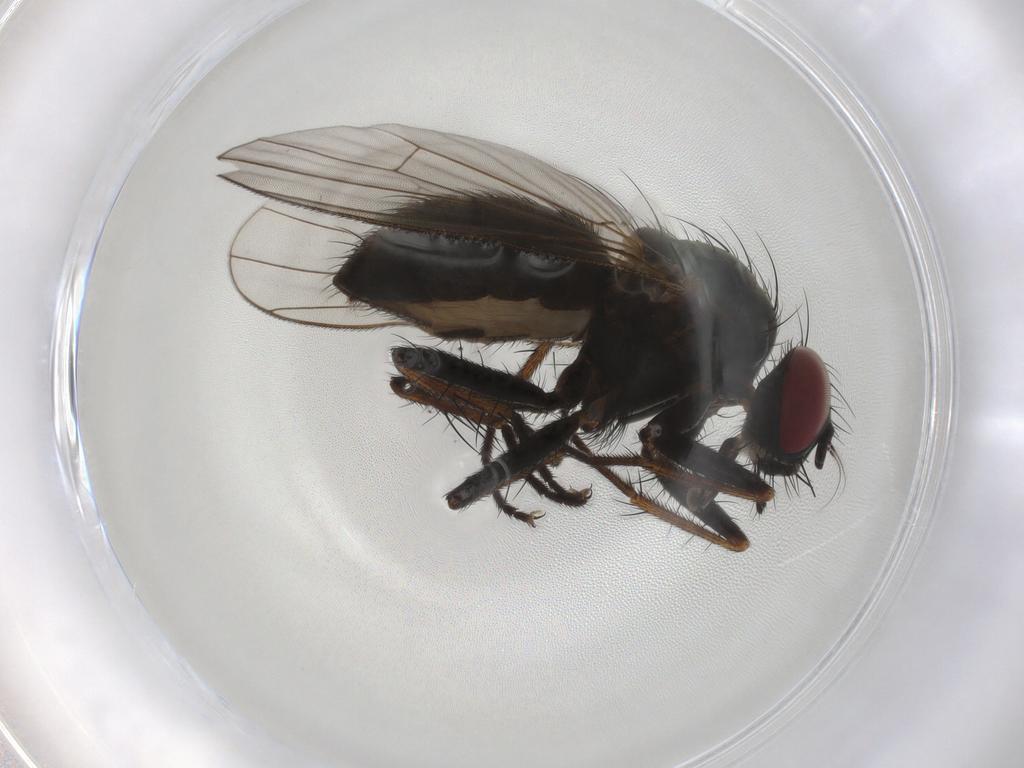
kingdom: Animalia
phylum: Arthropoda
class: Insecta
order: Diptera
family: Muscidae
